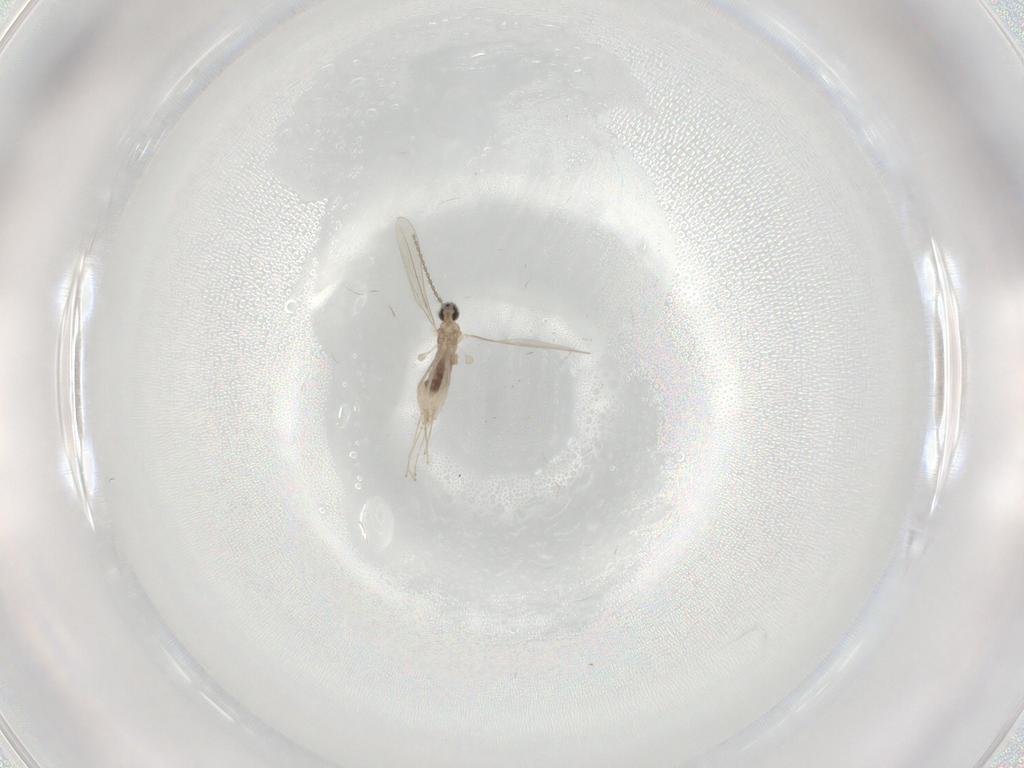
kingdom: Animalia
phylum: Arthropoda
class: Insecta
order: Diptera
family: Cecidomyiidae
